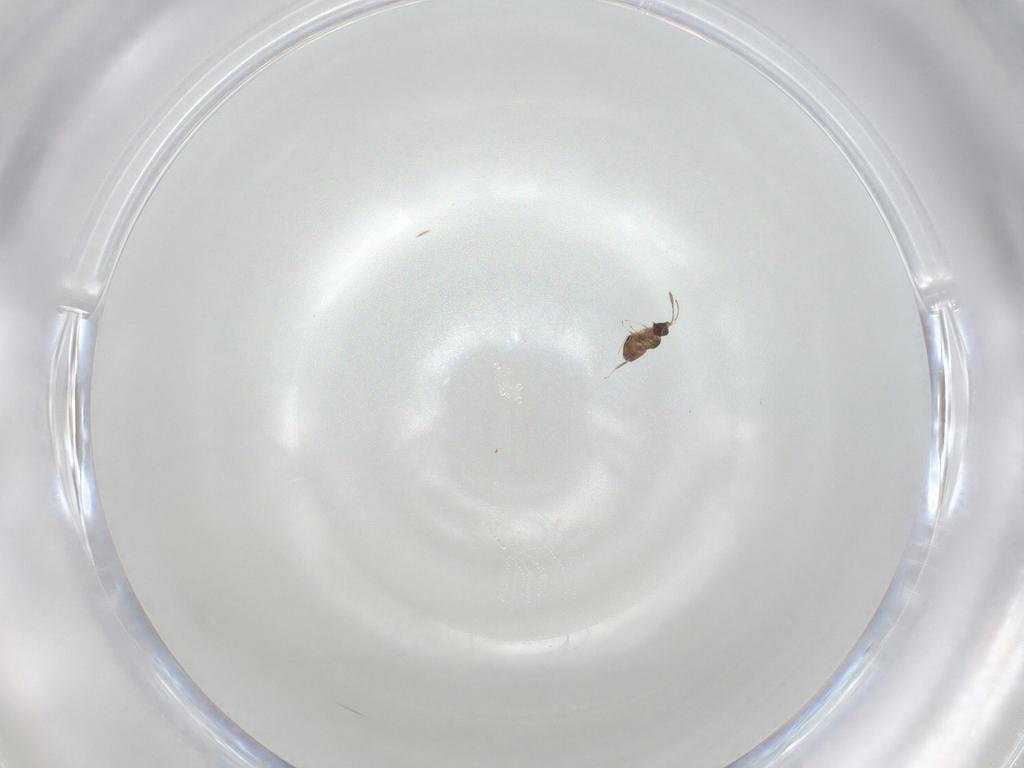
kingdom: Animalia
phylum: Arthropoda
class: Insecta
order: Hymenoptera
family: Mymaridae
